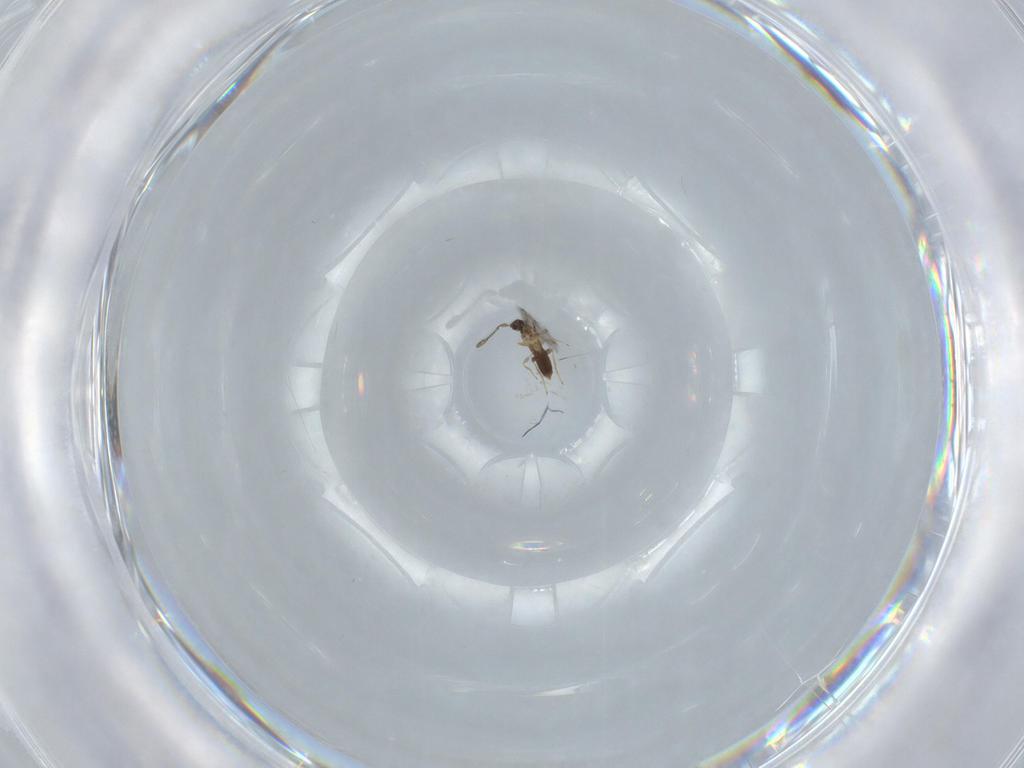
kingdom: Animalia
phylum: Arthropoda
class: Insecta
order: Hymenoptera
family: Mymaridae
